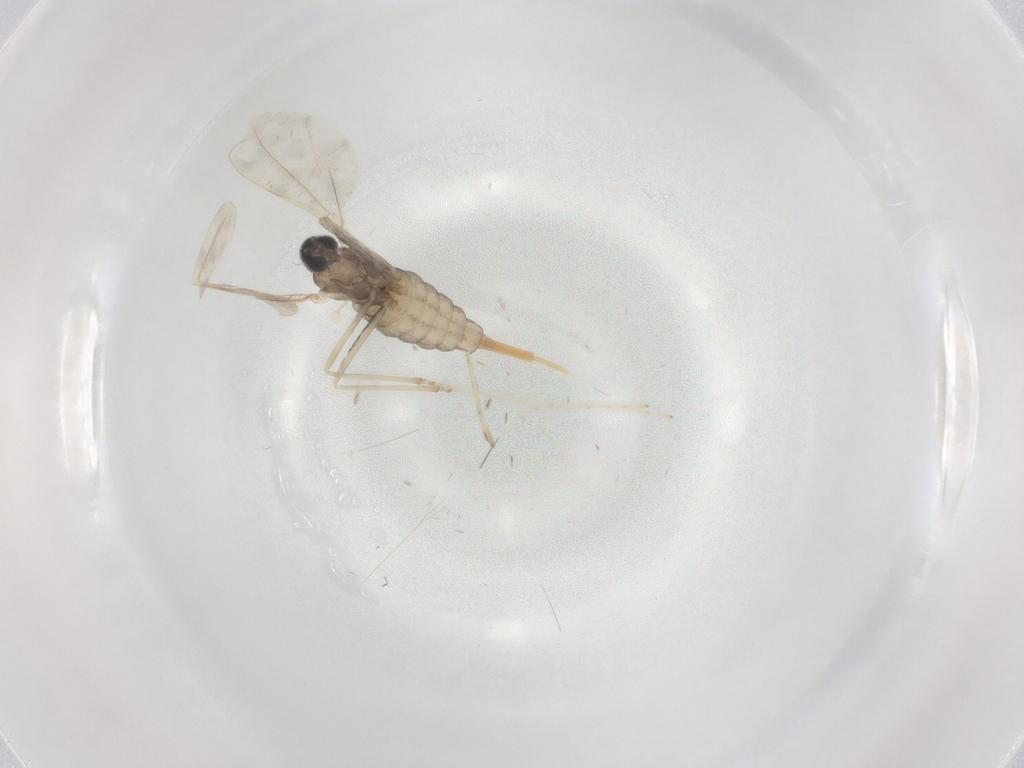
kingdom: Animalia
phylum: Arthropoda
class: Insecta
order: Diptera
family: Cecidomyiidae
